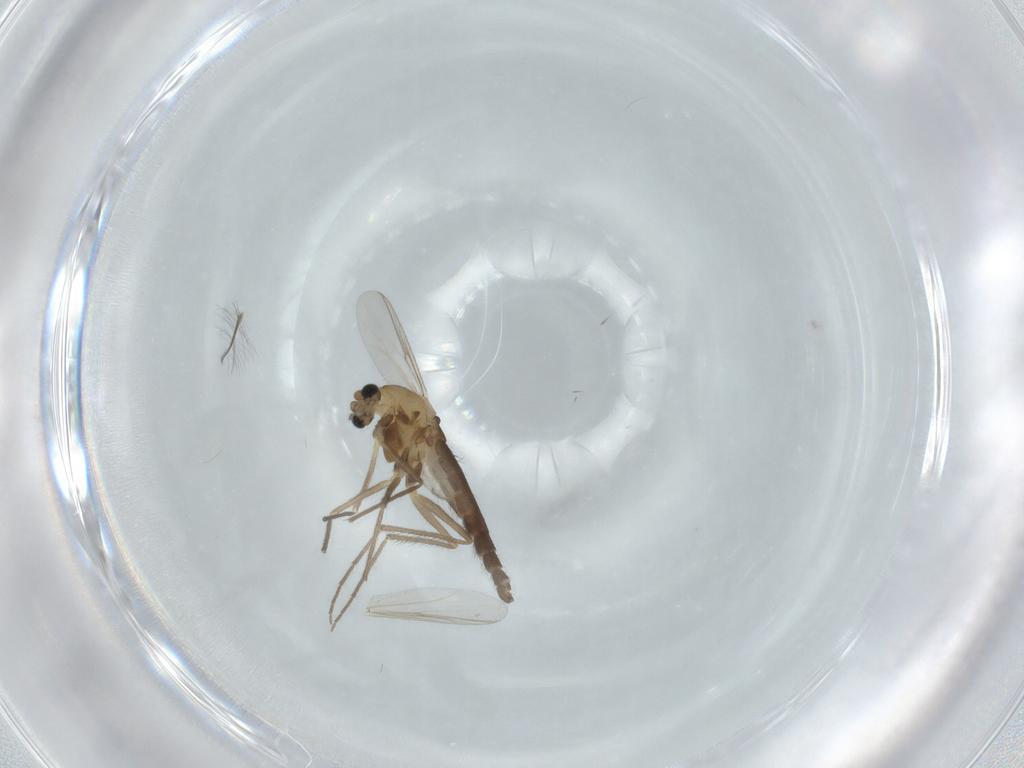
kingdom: Animalia
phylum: Arthropoda
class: Insecta
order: Diptera
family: Chironomidae
